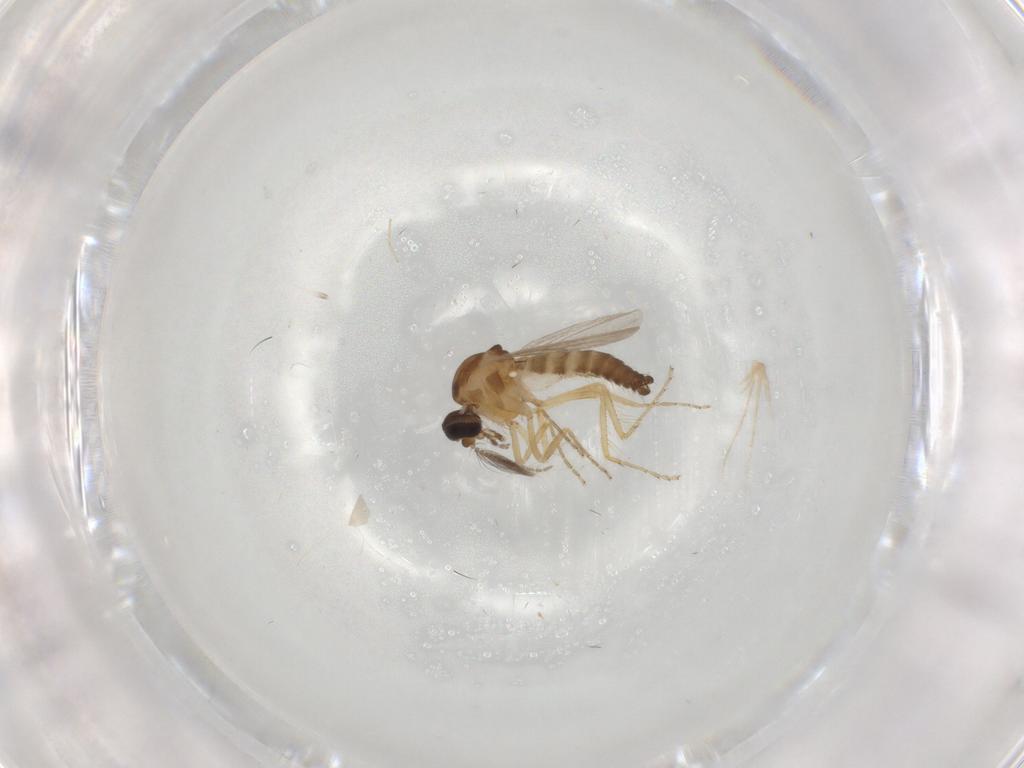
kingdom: Animalia
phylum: Arthropoda
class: Insecta
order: Diptera
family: Ceratopogonidae
